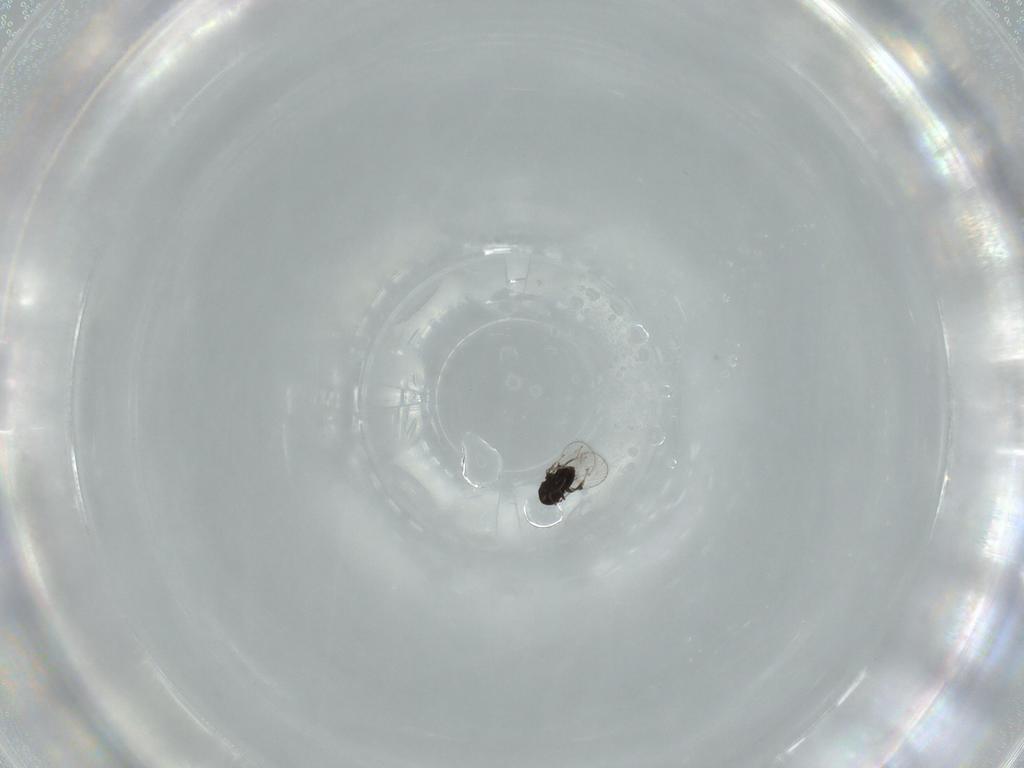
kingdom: Animalia
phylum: Arthropoda
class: Insecta
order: Hymenoptera
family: Trichogrammatidae
